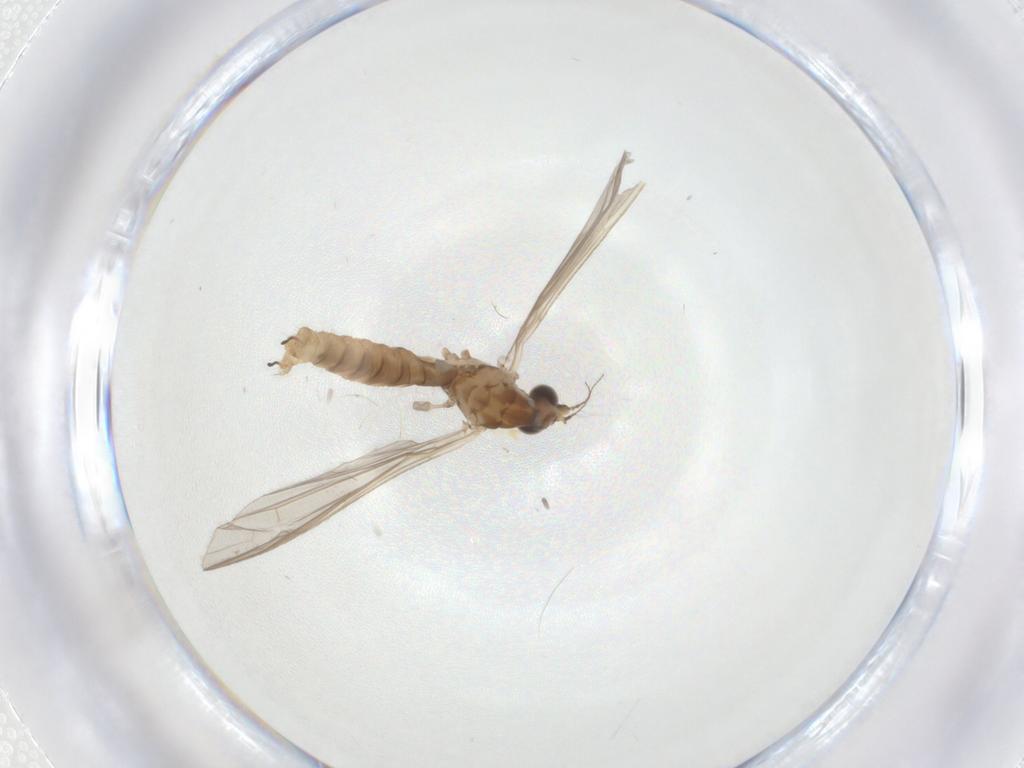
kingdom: Animalia
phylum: Arthropoda
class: Insecta
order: Diptera
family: Limoniidae
